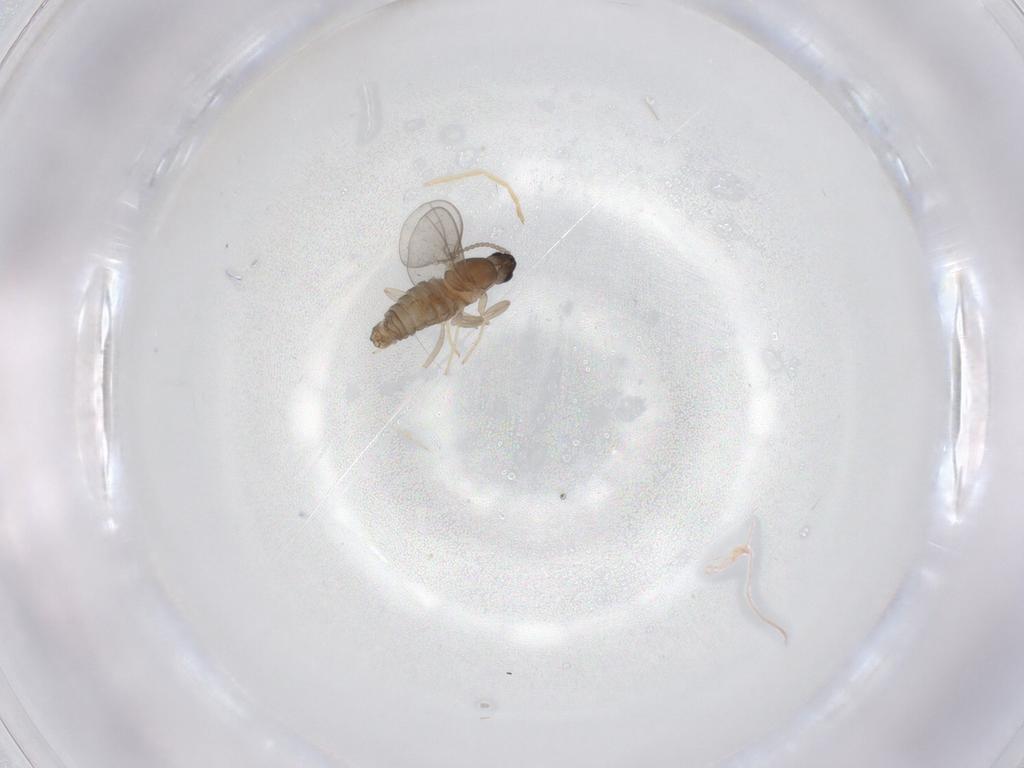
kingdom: Animalia
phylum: Arthropoda
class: Insecta
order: Diptera
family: Cecidomyiidae
